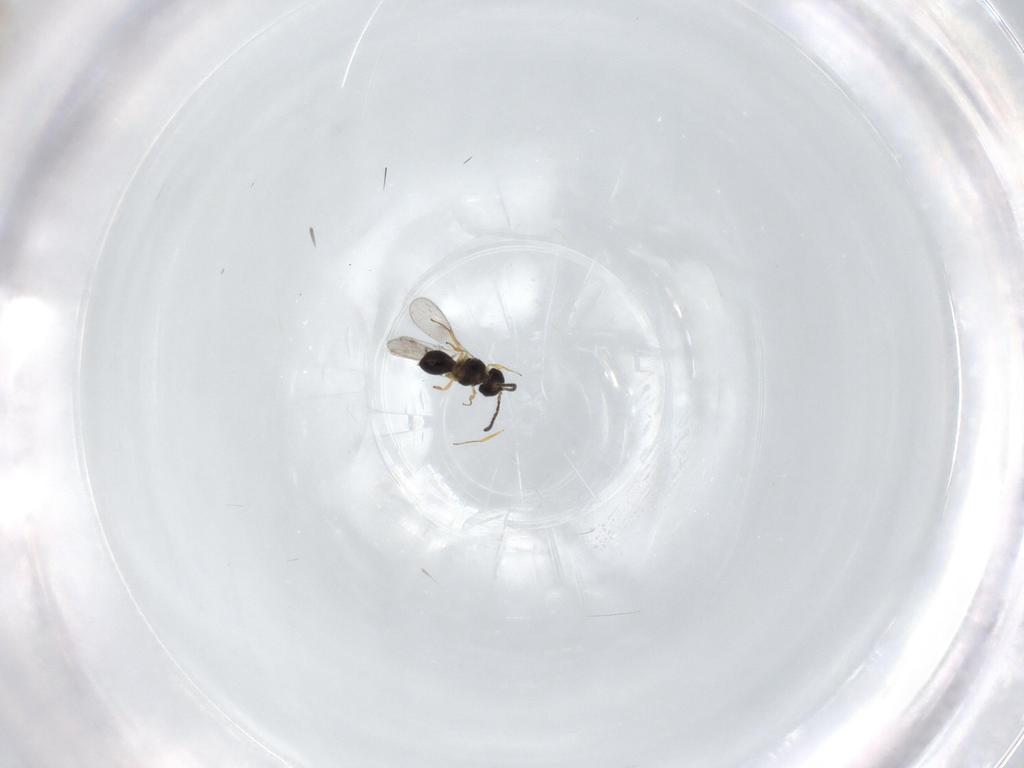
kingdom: Animalia
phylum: Arthropoda
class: Insecta
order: Hymenoptera
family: Scelionidae
